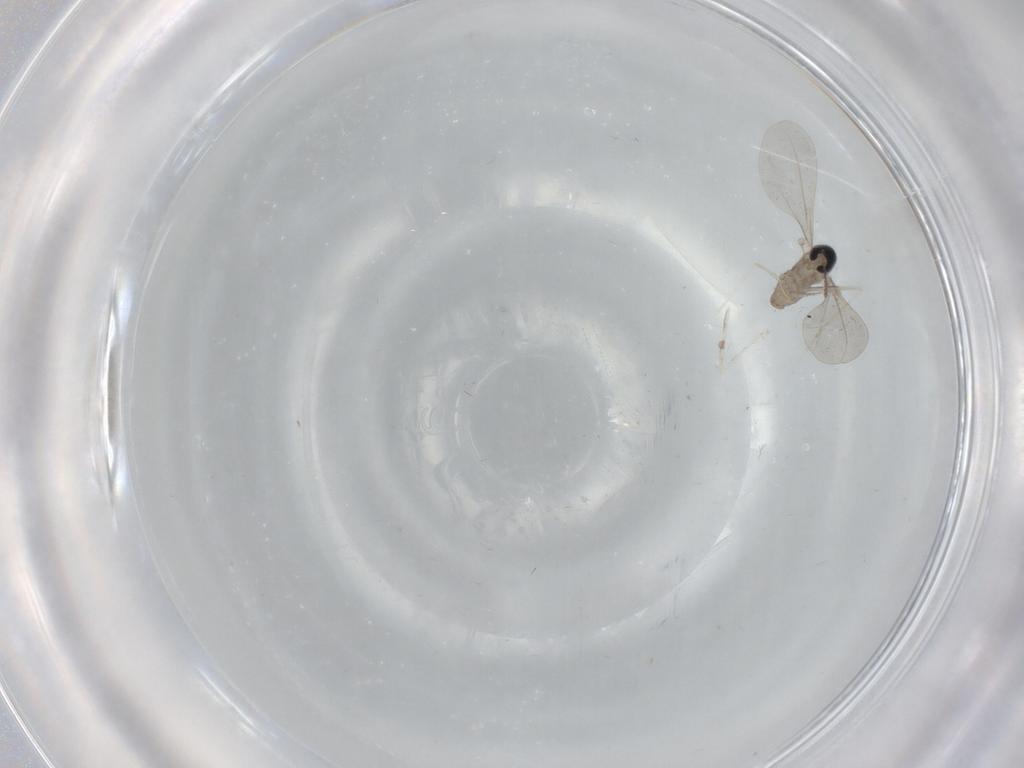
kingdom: Animalia
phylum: Arthropoda
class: Insecta
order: Diptera
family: Cecidomyiidae
